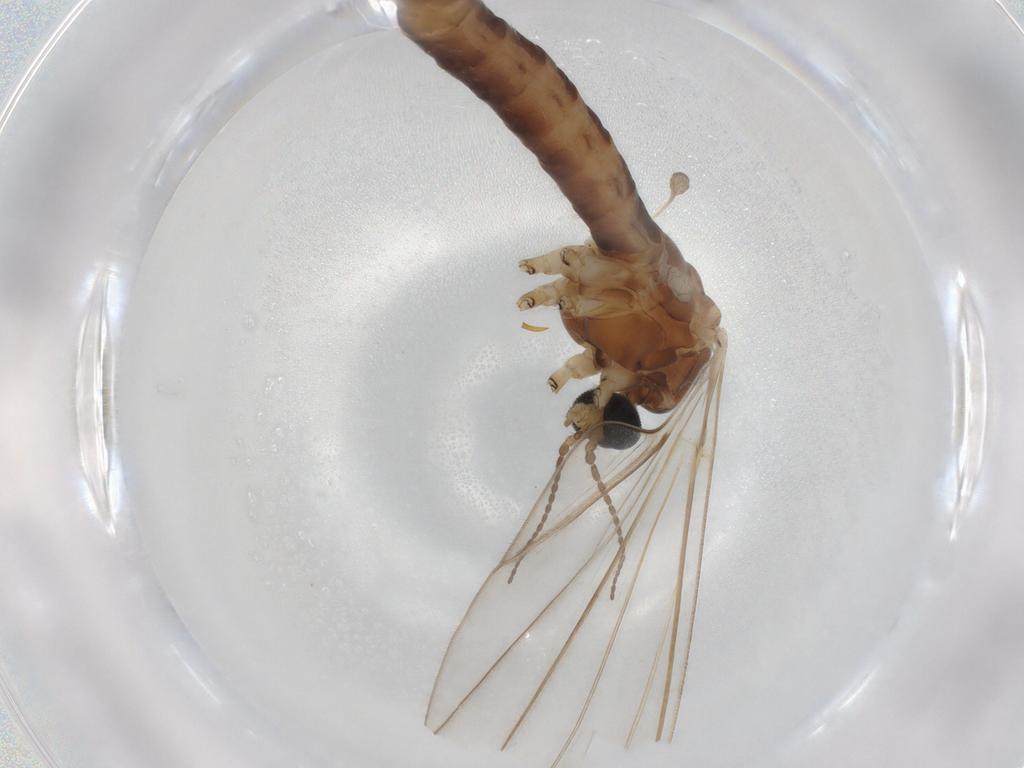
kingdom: Animalia
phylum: Arthropoda
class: Insecta
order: Diptera
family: Limoniidae
